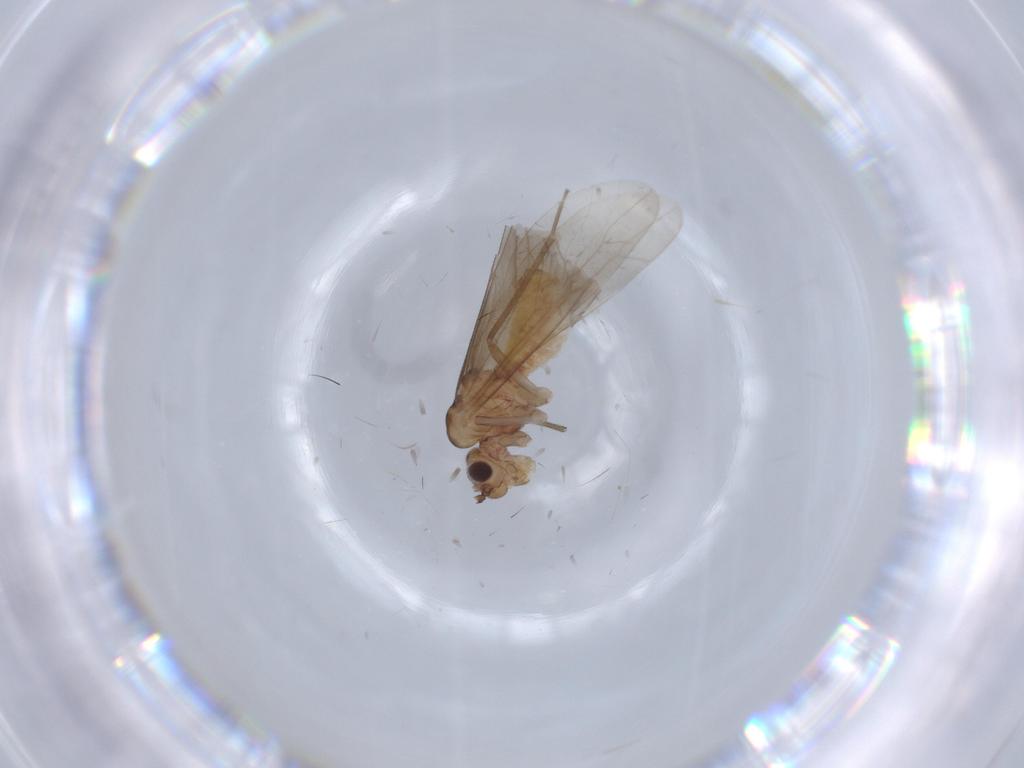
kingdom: Animalia
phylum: Arthropoda
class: Insecta
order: Psocodea
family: Caeciliusidae
